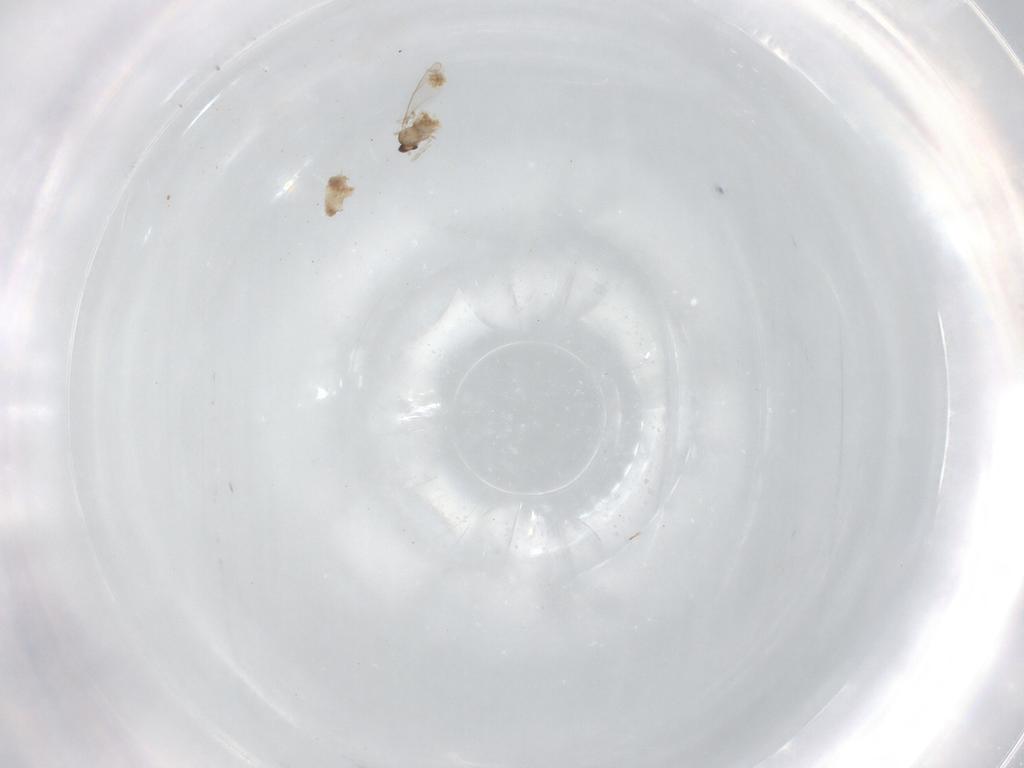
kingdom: Animalia
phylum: Arthropoda
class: Insecta
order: Diptera
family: Cecidomyiidae
